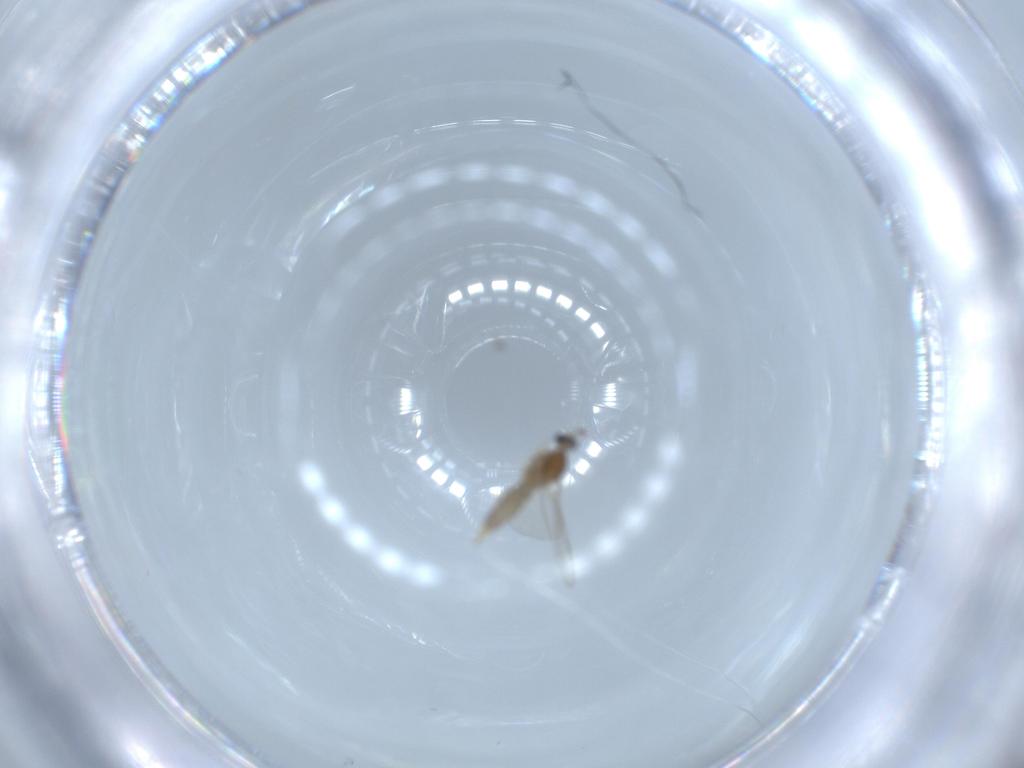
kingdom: Animalia
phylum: Arthropoda
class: Insecta
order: Diptera
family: Cecidomyiidae
